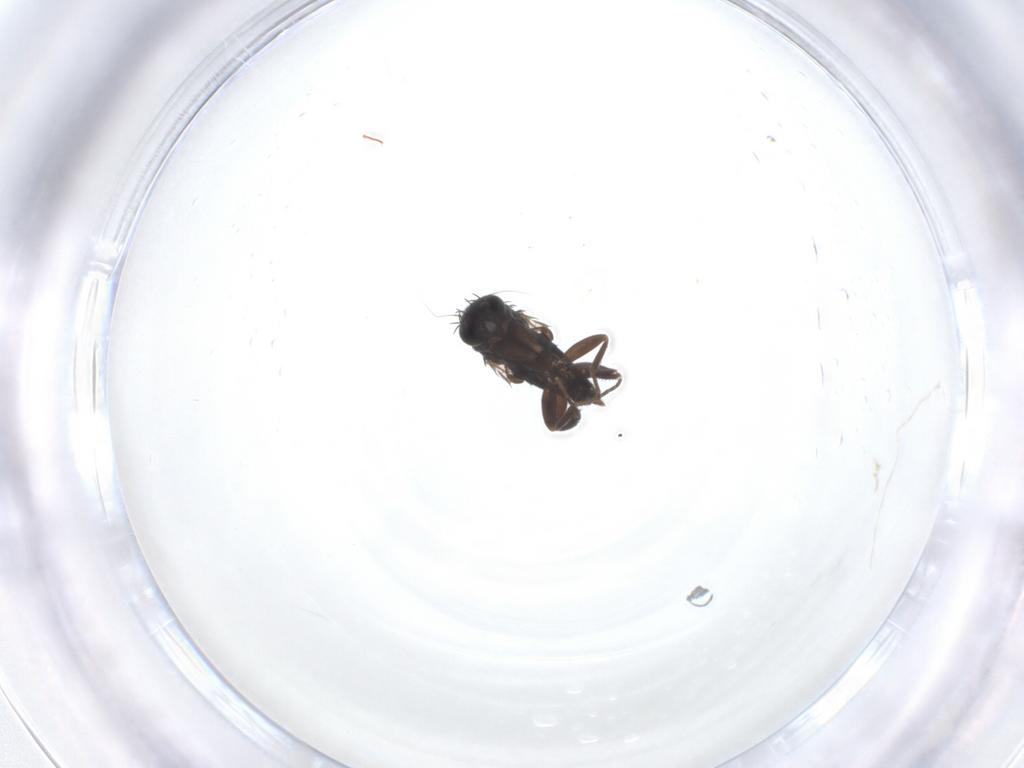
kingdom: Animalia
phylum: Arthropoda
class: Insecta
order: Diptera
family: Phoridae
